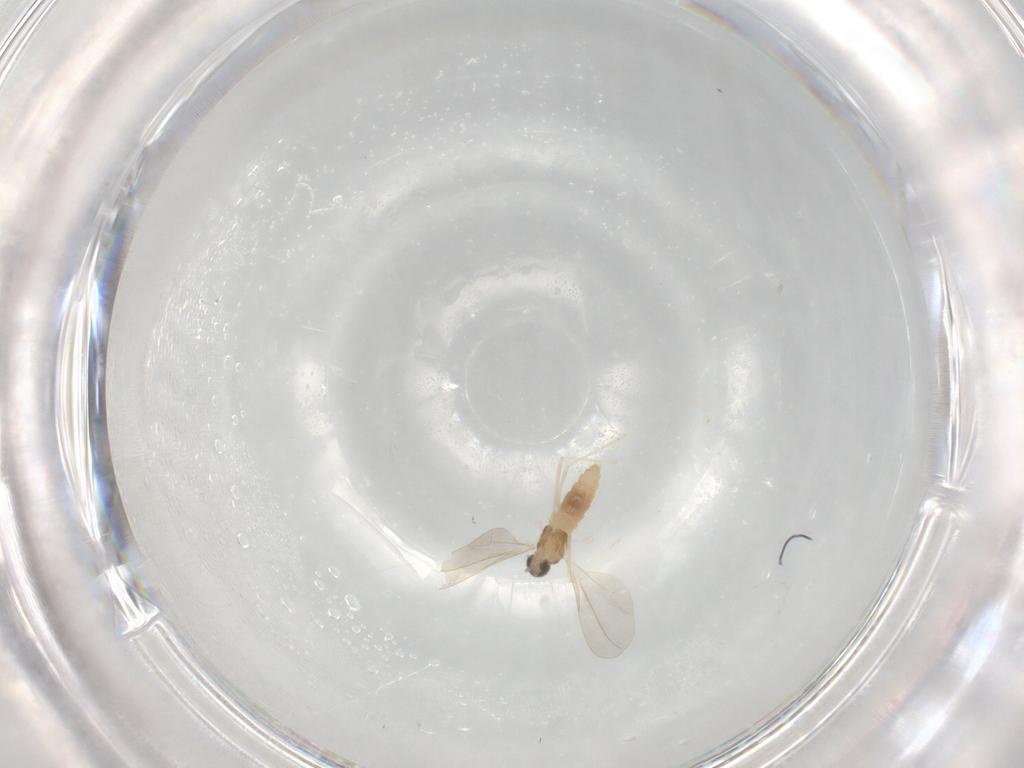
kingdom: Animalia
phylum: Arthropoda
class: Insecta
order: Diptera
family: Cecidomyiidae
